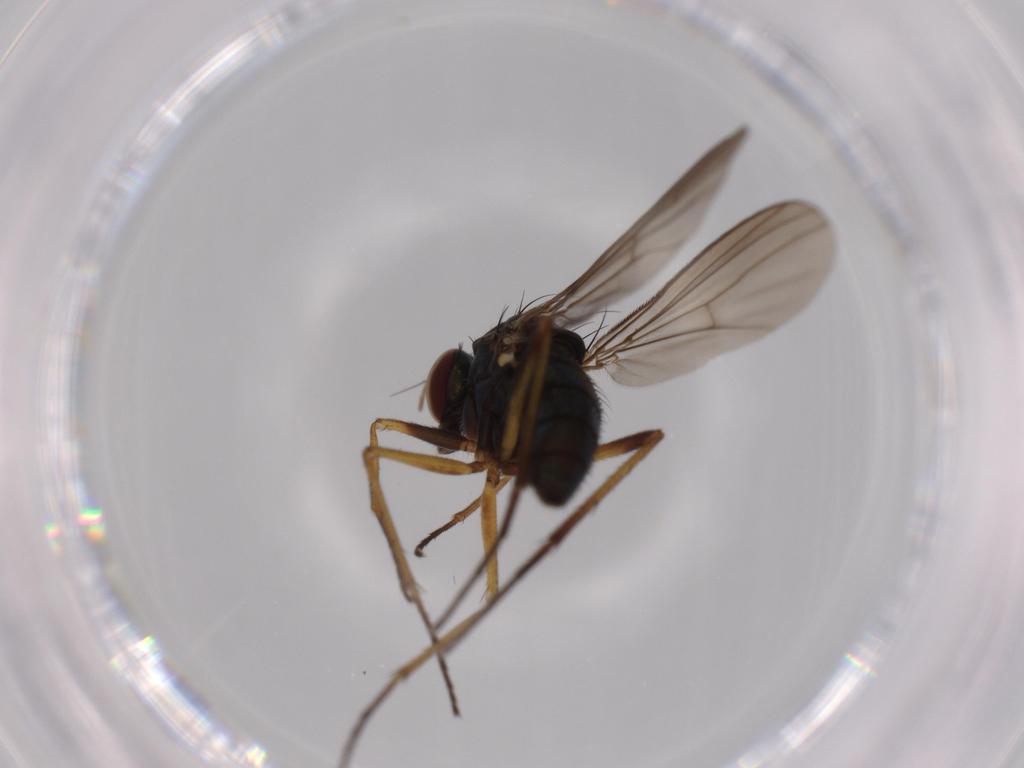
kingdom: Animalia
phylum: Arthropoda
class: Insecta
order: Diptera
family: Dolichopodidae
